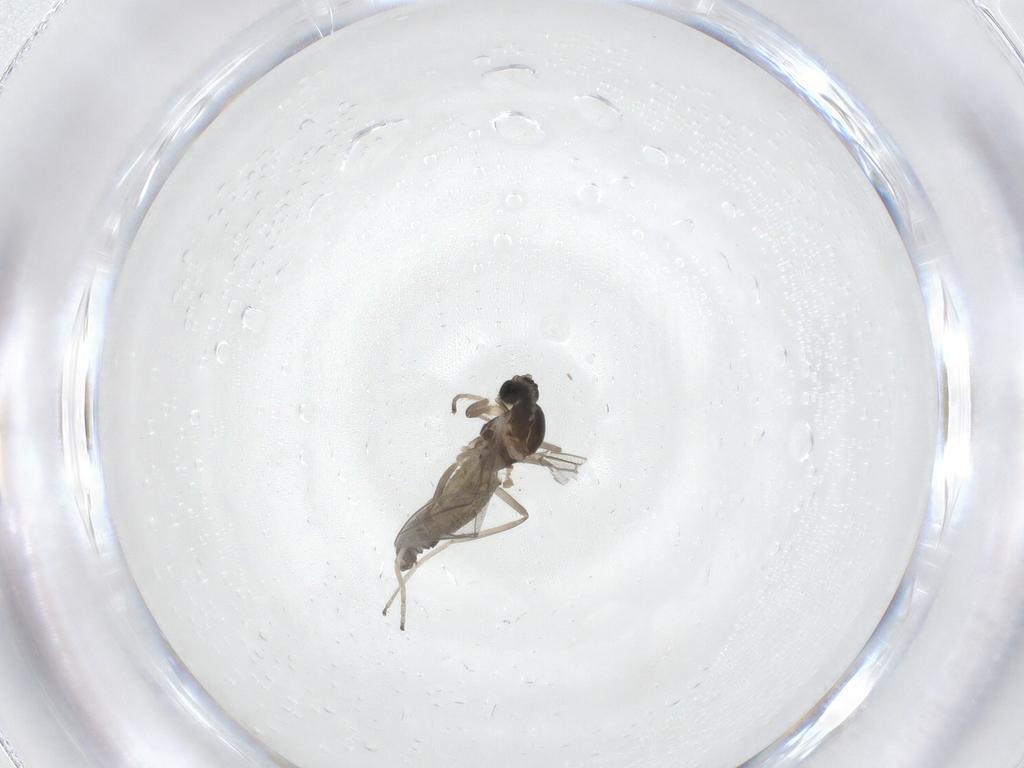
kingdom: Animalia
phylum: Arthropoda
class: Insecta
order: Diptera
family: Cecidomyiidae
